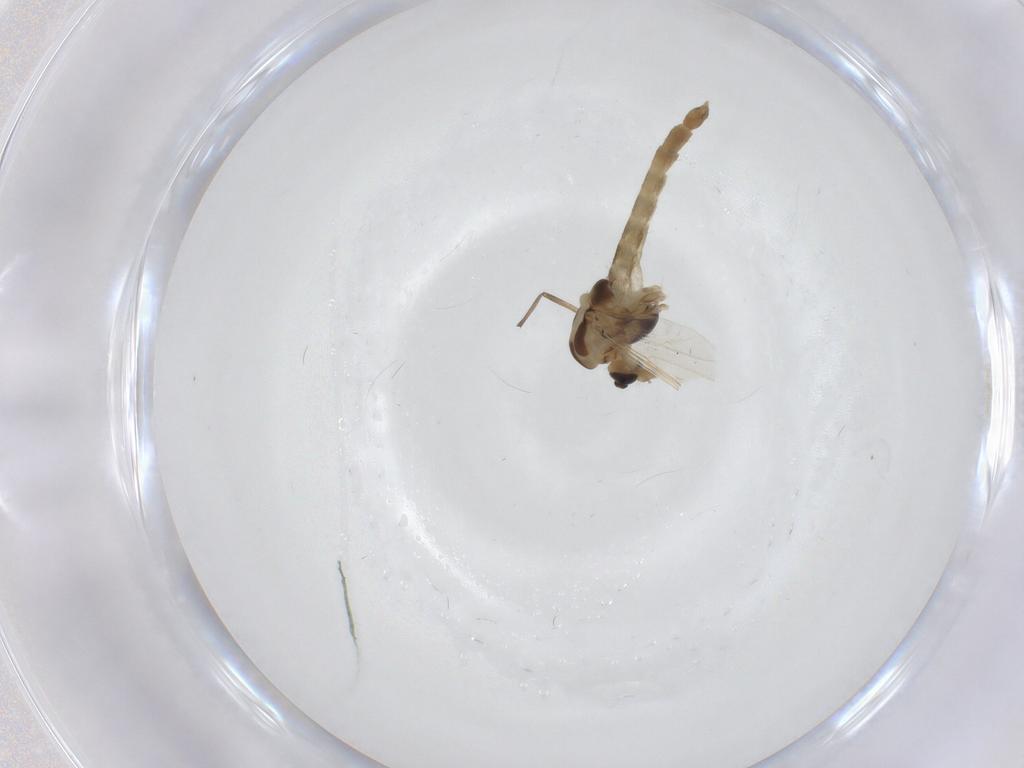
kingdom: Animalia
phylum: Arthropoda
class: Insecta
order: Diptera
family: Chironomidae
